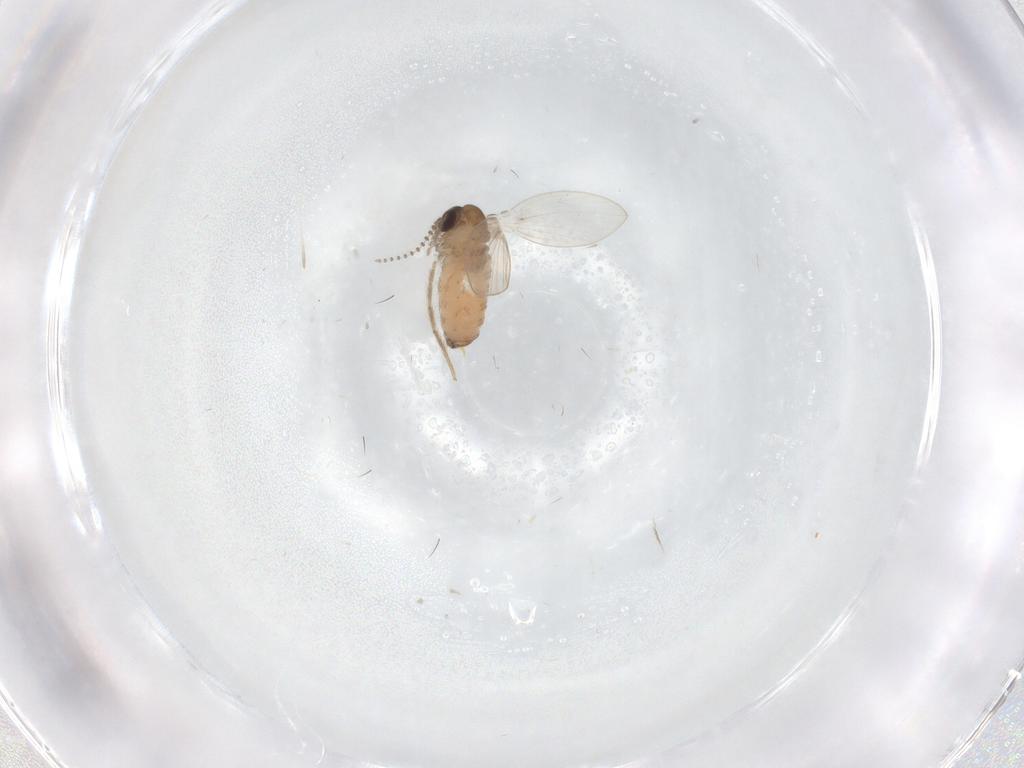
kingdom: Animalia
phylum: Arthropoda
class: Insecta
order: Diptera
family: Psychodidae
